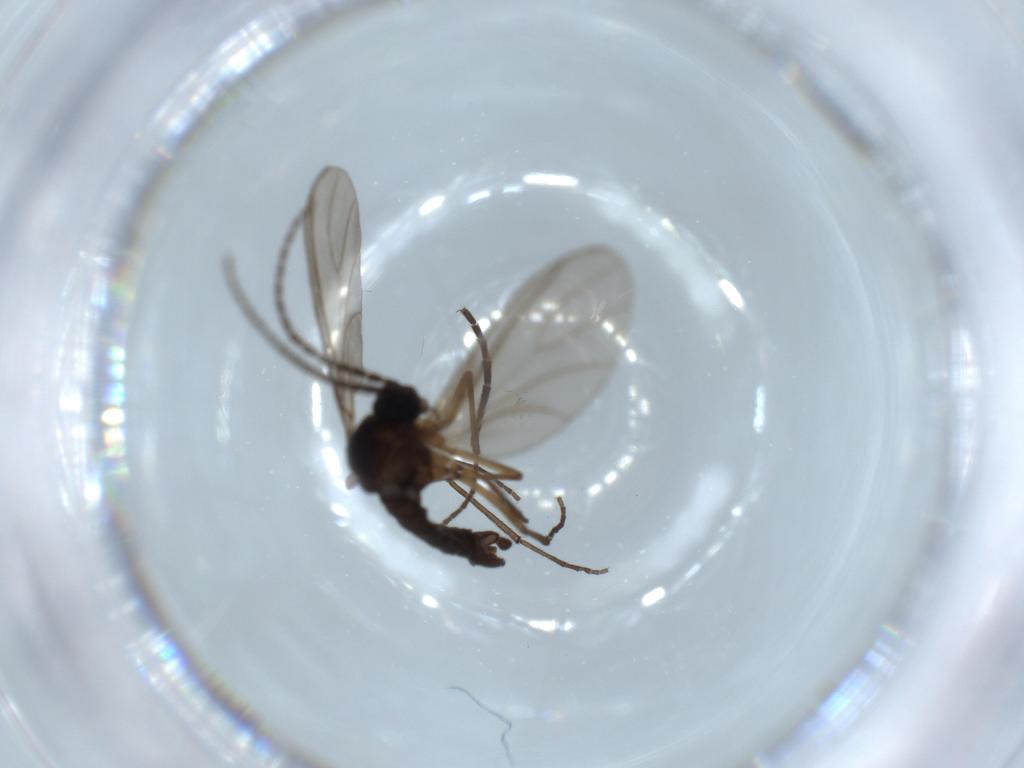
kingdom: Animalia
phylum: Arthropoda
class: Insecta
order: Diptera
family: Sciaridae
